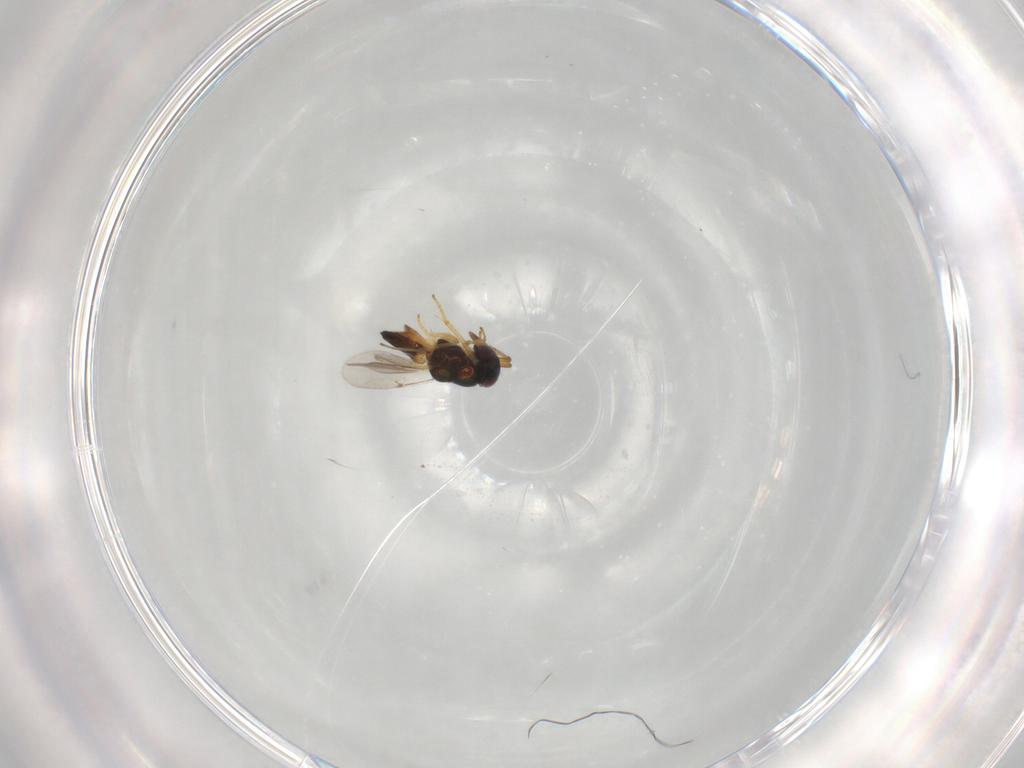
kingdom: Animalia
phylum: Arthropoda
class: Insecta
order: Hymenoptera
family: Encyrtidae
